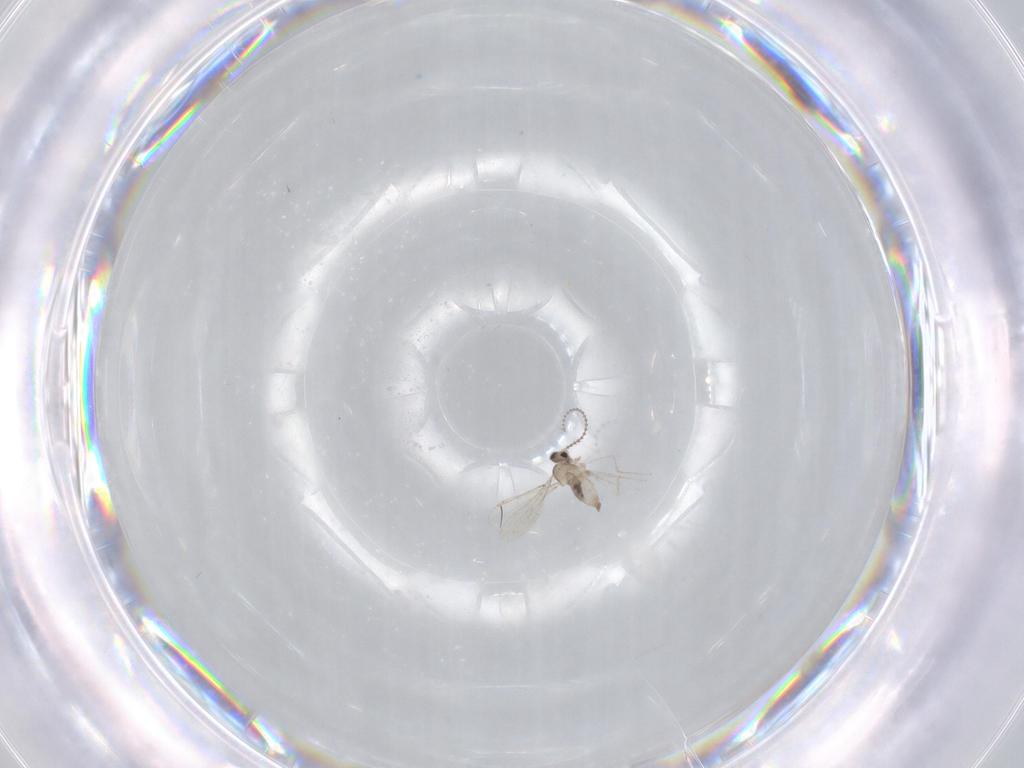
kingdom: Animalia
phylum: Arthropoda
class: Insecta
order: Diptera
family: Cecidomyiidae
